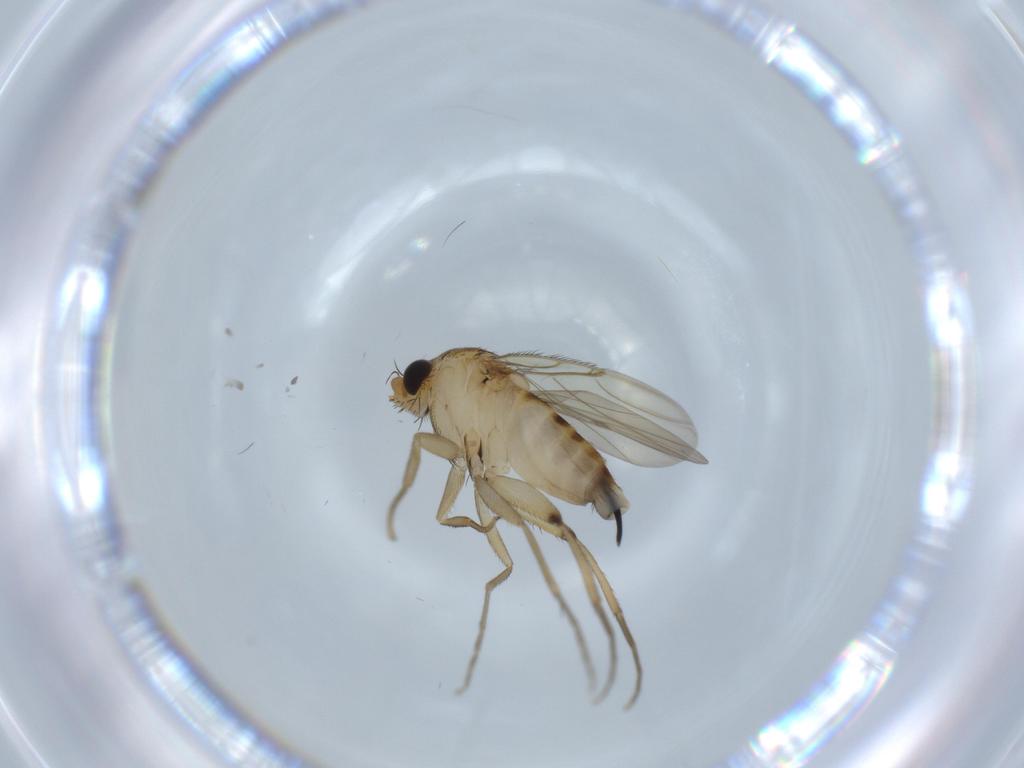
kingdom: Animalia
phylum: Arthropoda
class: Insecta
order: Diptera
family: Phoridae
